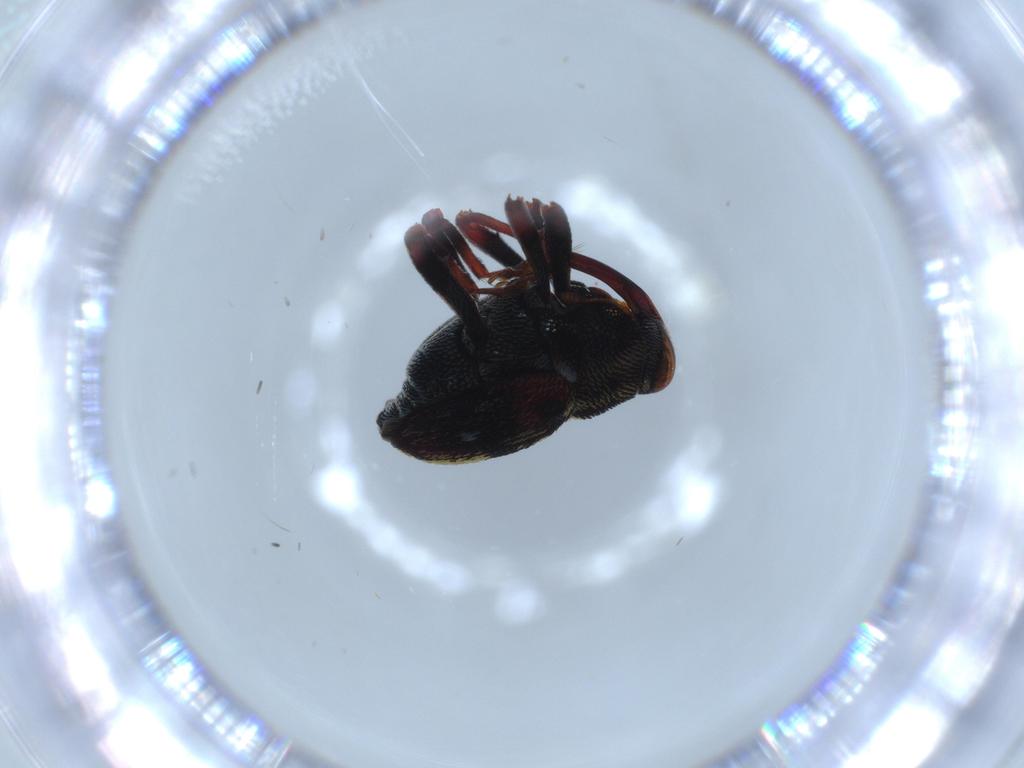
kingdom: Animalia
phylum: Arthropoda
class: Insecta
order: Coleoptera
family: Curculionidae
